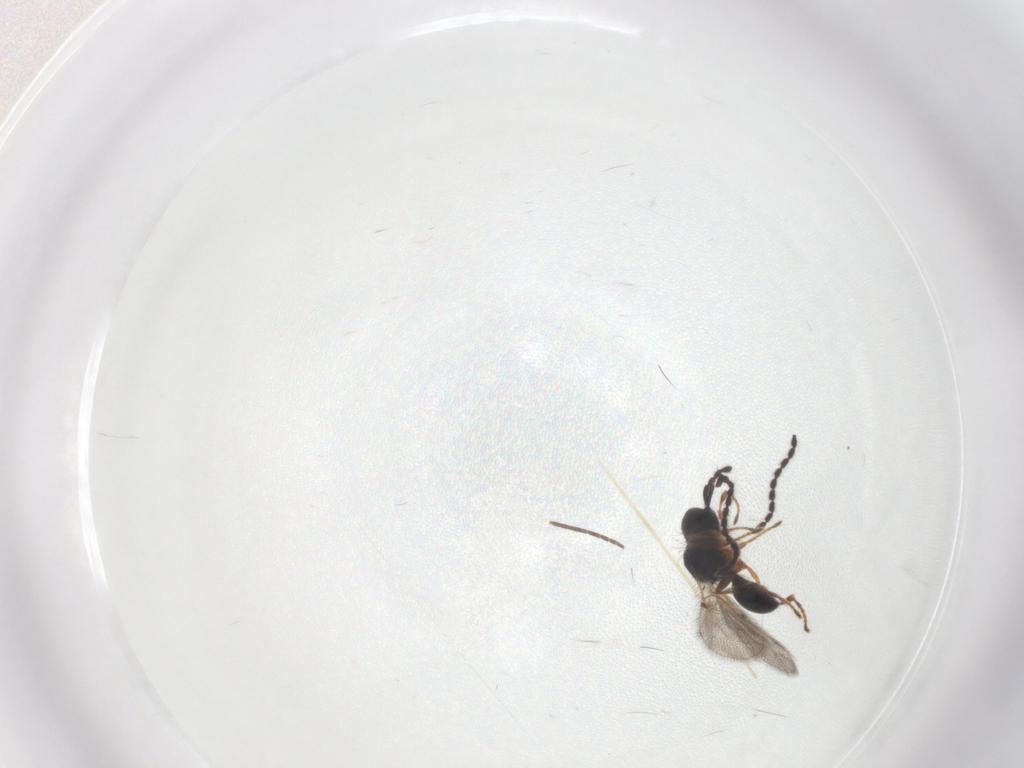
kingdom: Animalia
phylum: Arthropoda
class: Insecta
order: Hymenoptera
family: Diapriidae
